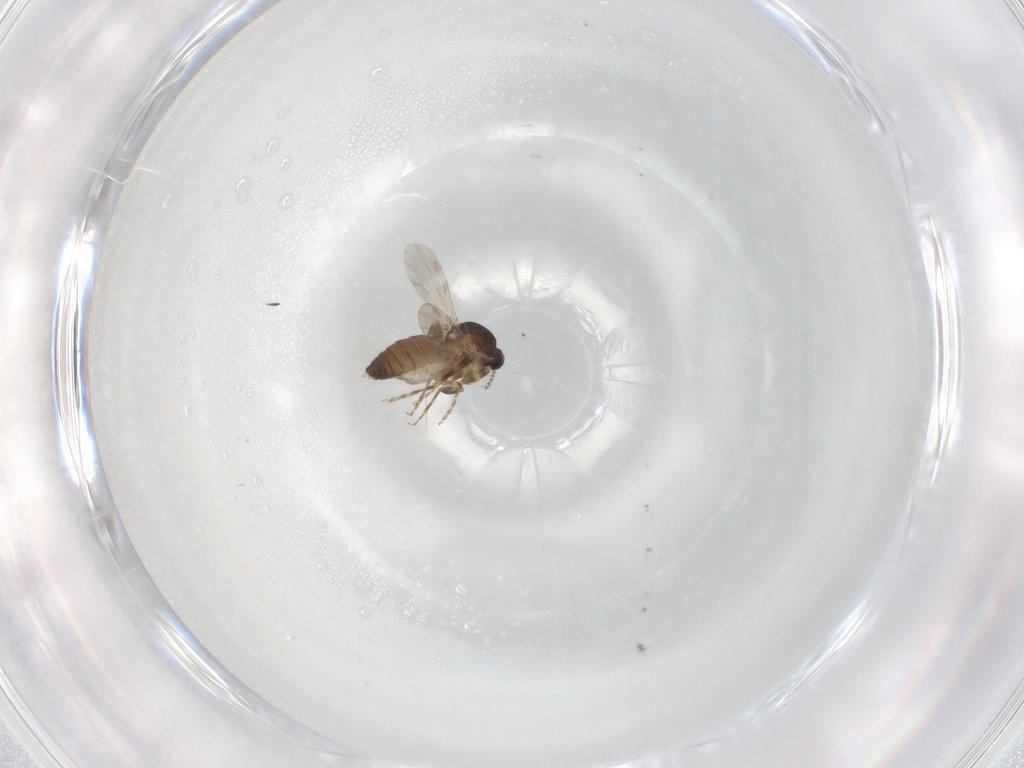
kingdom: Animalia
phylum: Arthropoda
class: Insecta
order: Diptera
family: Ceratopogonidae
